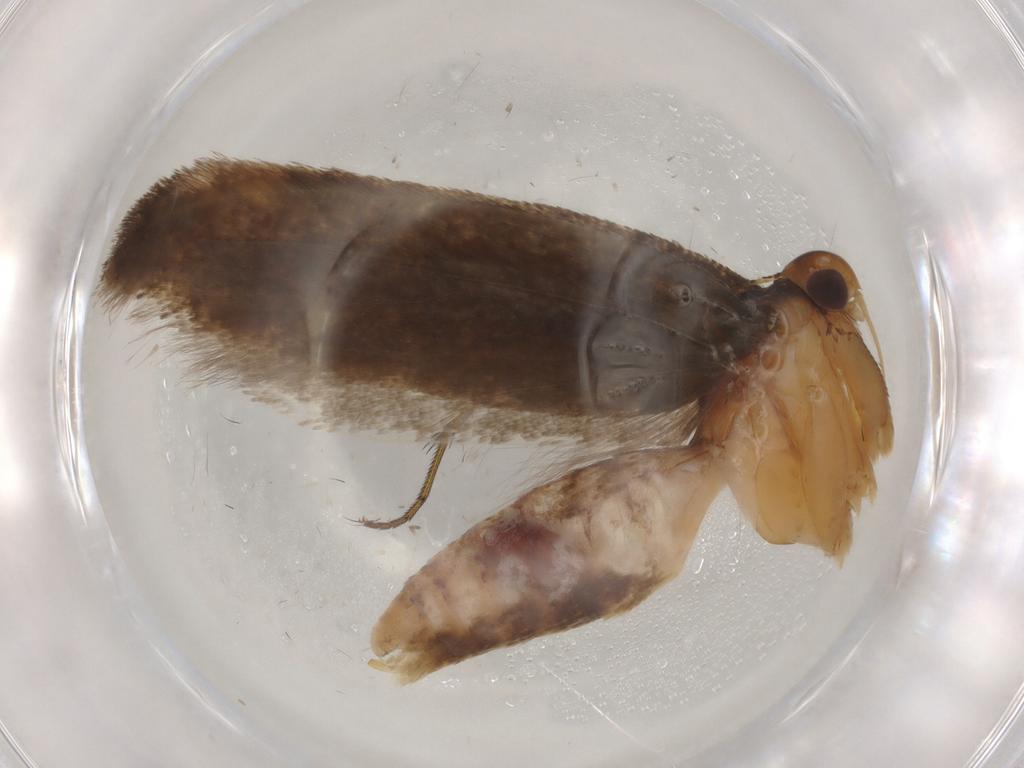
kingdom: Animalia
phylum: Arthropoda
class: Insecta
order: Lepidoptera
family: Gelechiidae
